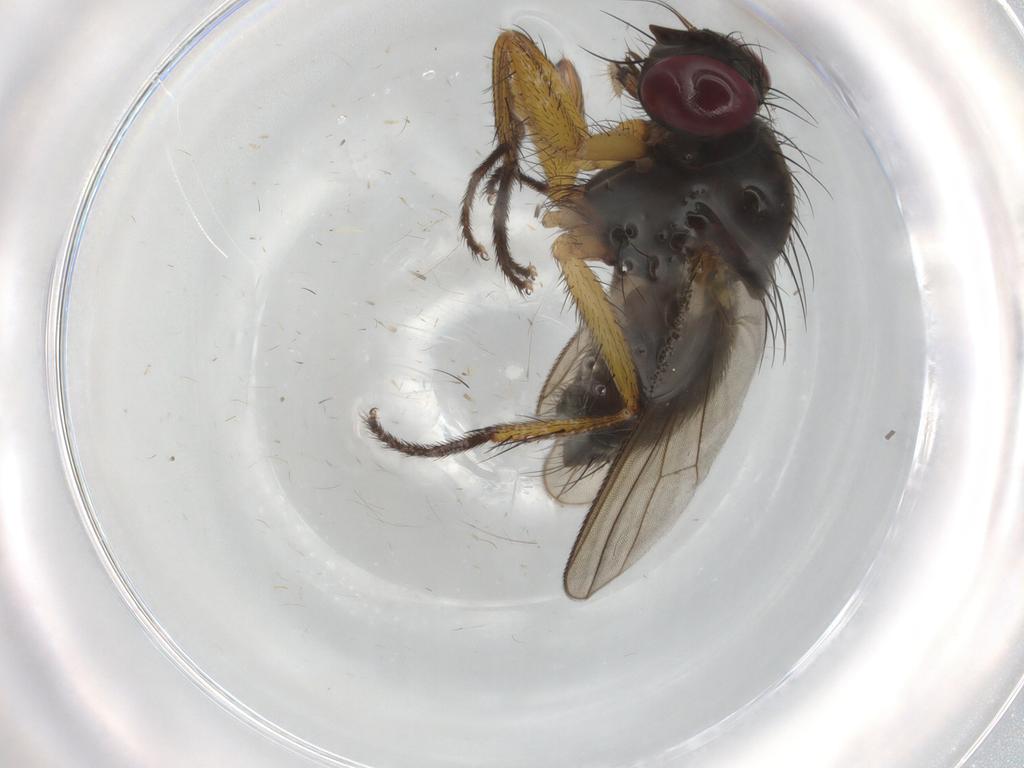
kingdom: Animalia
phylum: Arthropoda
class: Insecta
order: Diptera
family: Muscidae
